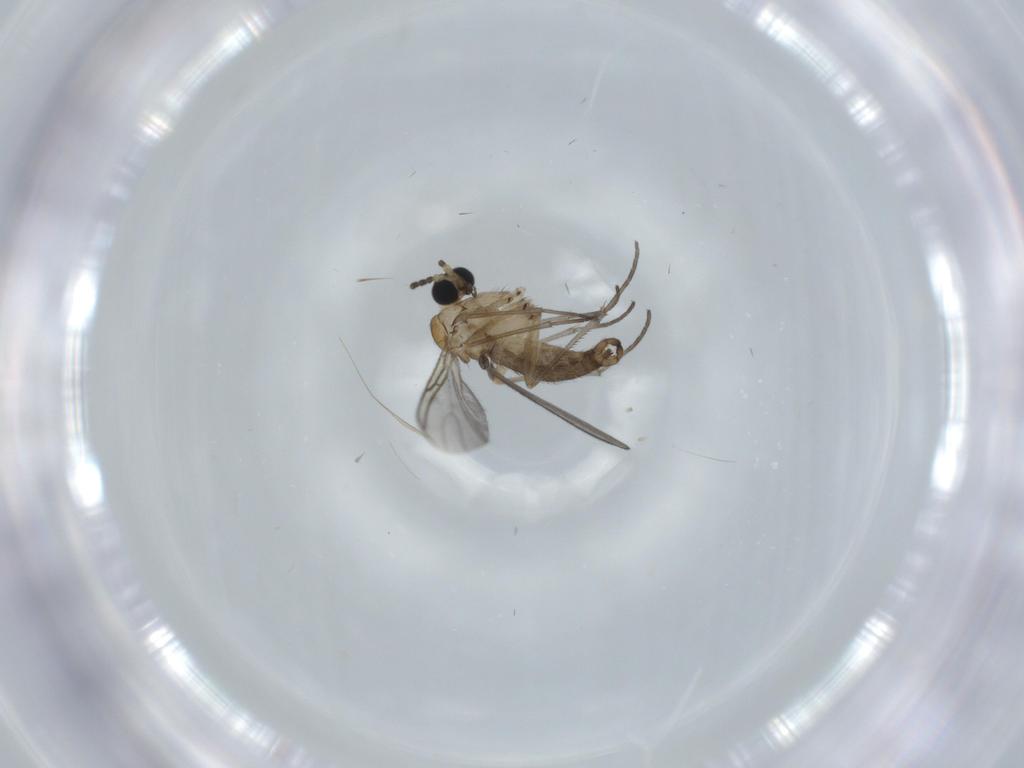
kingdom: Animalia
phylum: Arthropoda
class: Insecta
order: Diptera
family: Sciaridae
